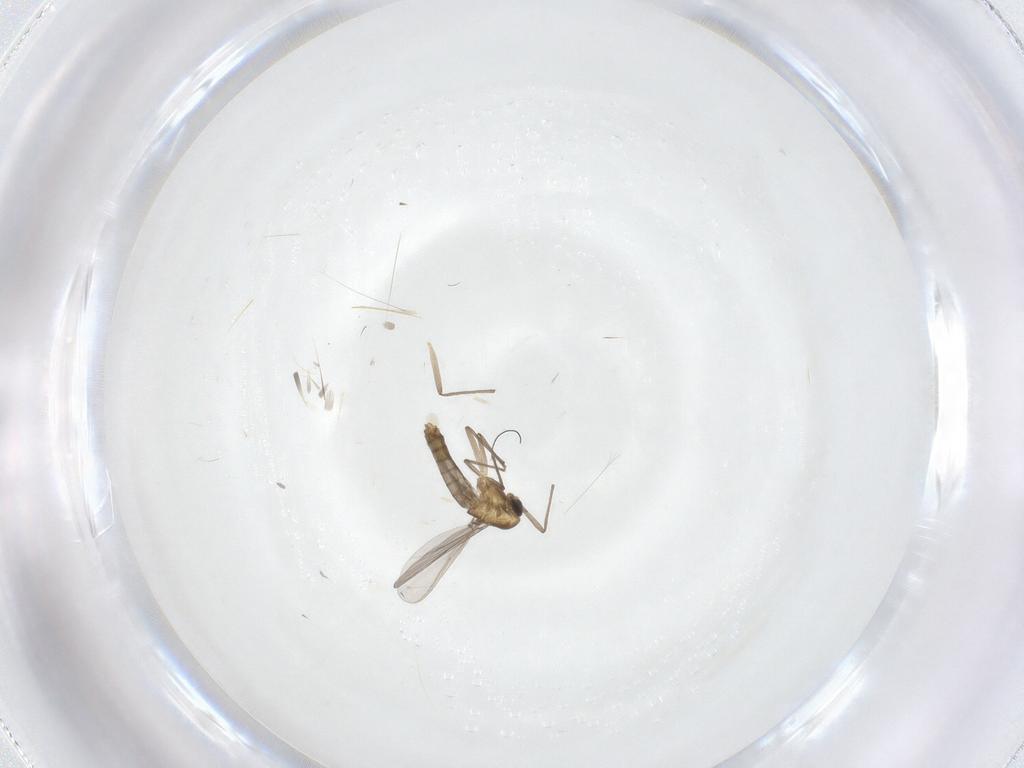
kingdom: Animalia
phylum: Arthropoda
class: Insecta
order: Diptera
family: Chironomidae
